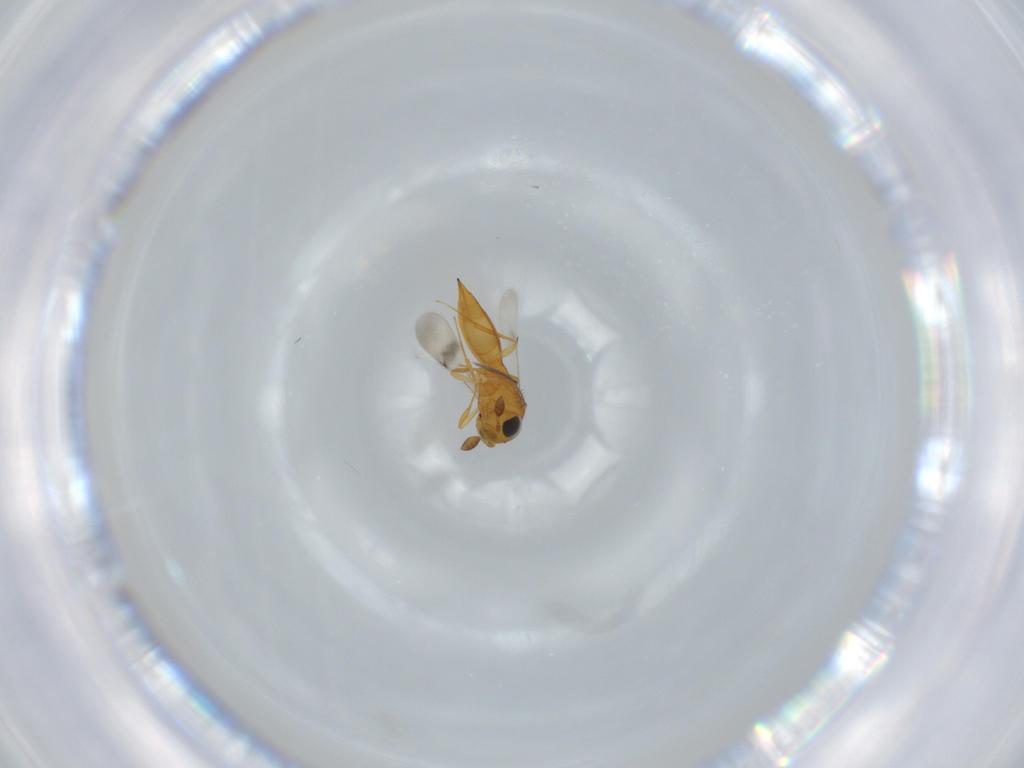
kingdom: Animalia
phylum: Arthropoda
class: Insecta
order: Hymenoptera
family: Scelionidae
